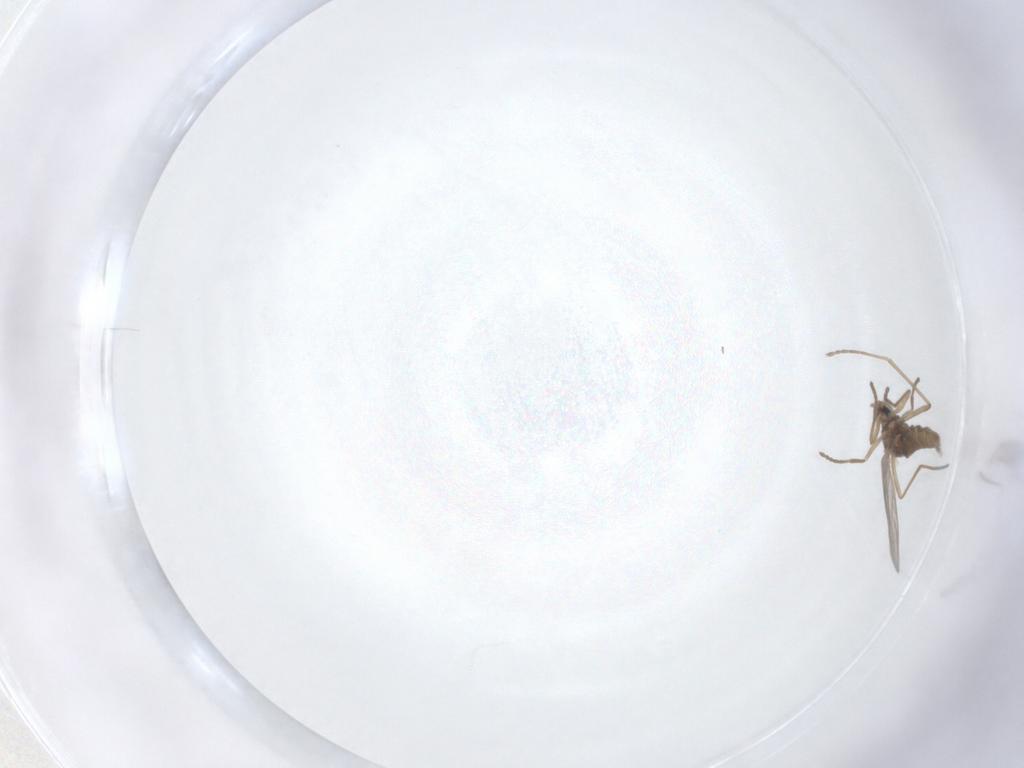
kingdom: Animalia
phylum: Arthropoda
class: Insecta
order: Diptera
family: Cecidomyiidae
